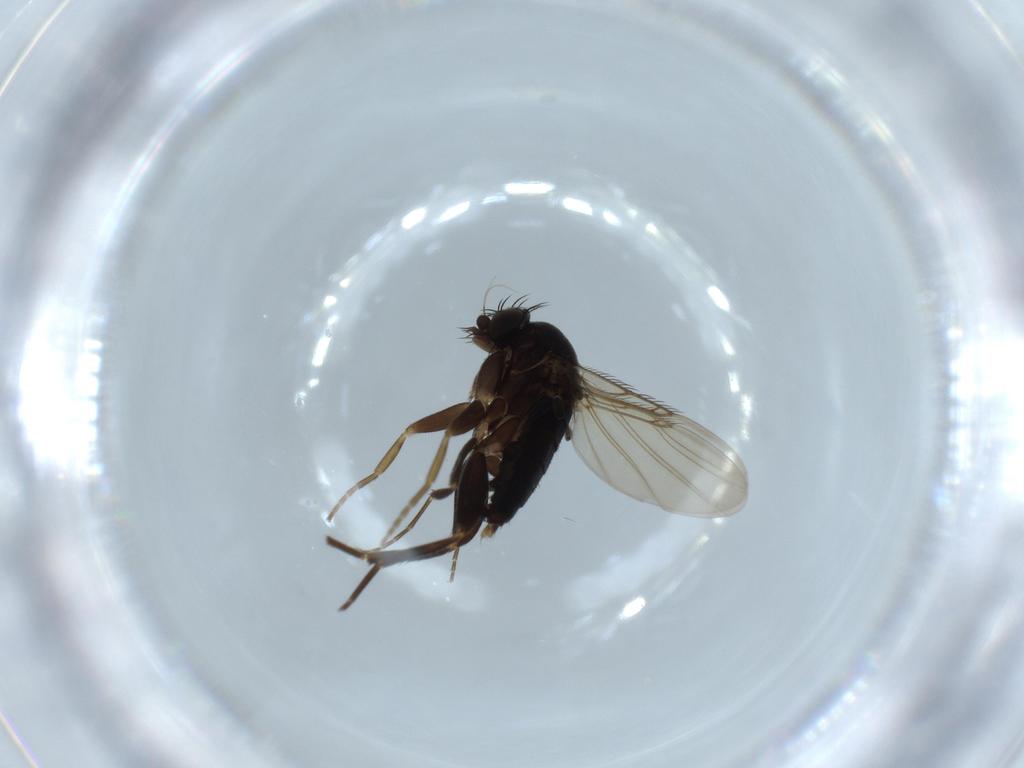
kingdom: Animalia
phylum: Arthropoda
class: Insecta
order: Diptera
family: Phoridae
